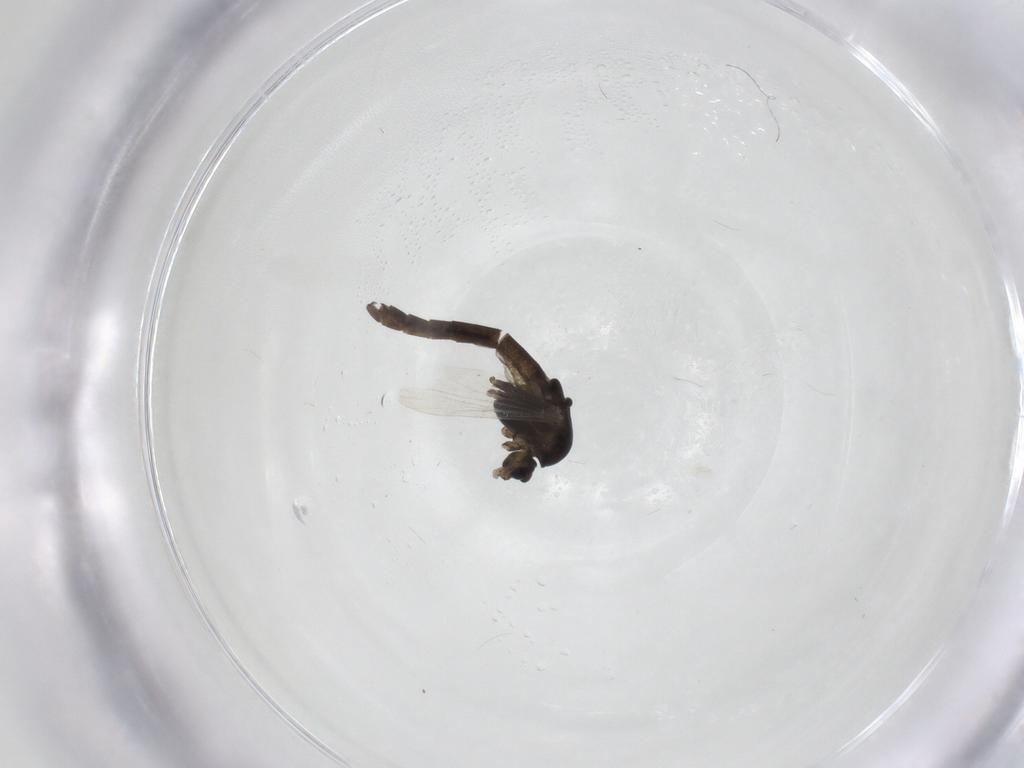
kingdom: Animalia
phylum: Arthropoda
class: Insecta
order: Diptera
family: Chironomidae
